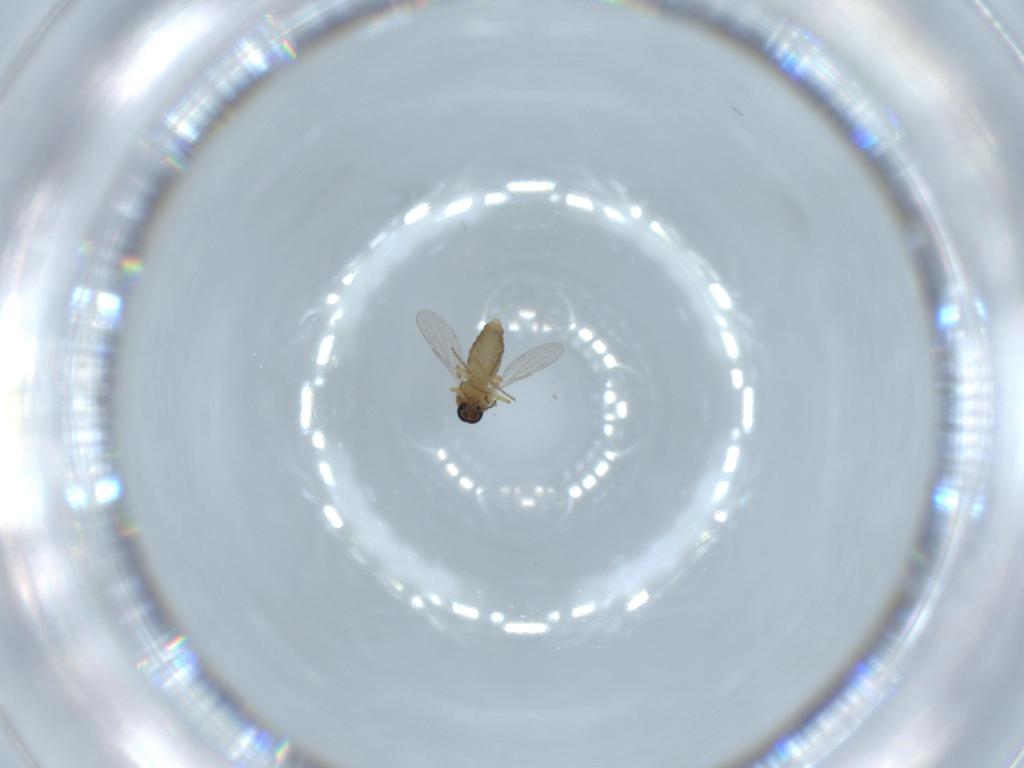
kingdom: Animalia
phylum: Arthropoda
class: Insecta
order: Diptera
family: Ceratopogonidae
